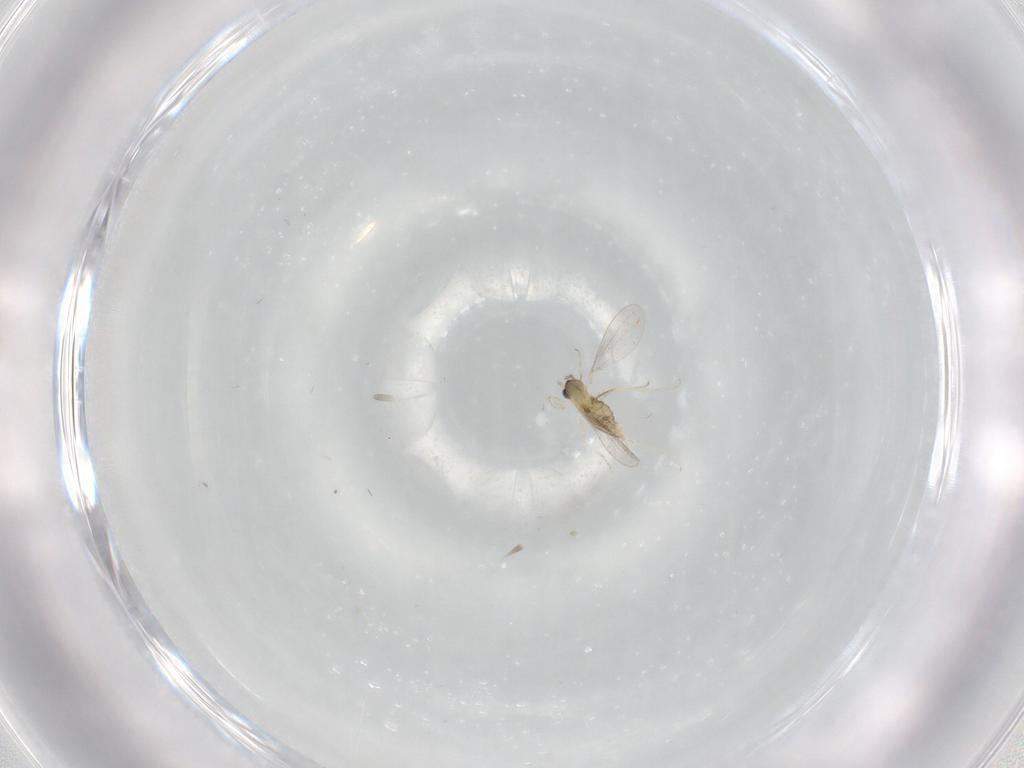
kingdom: Animalia
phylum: Arthropoda
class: Insecta
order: Diptera
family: Cecidomyiidae
